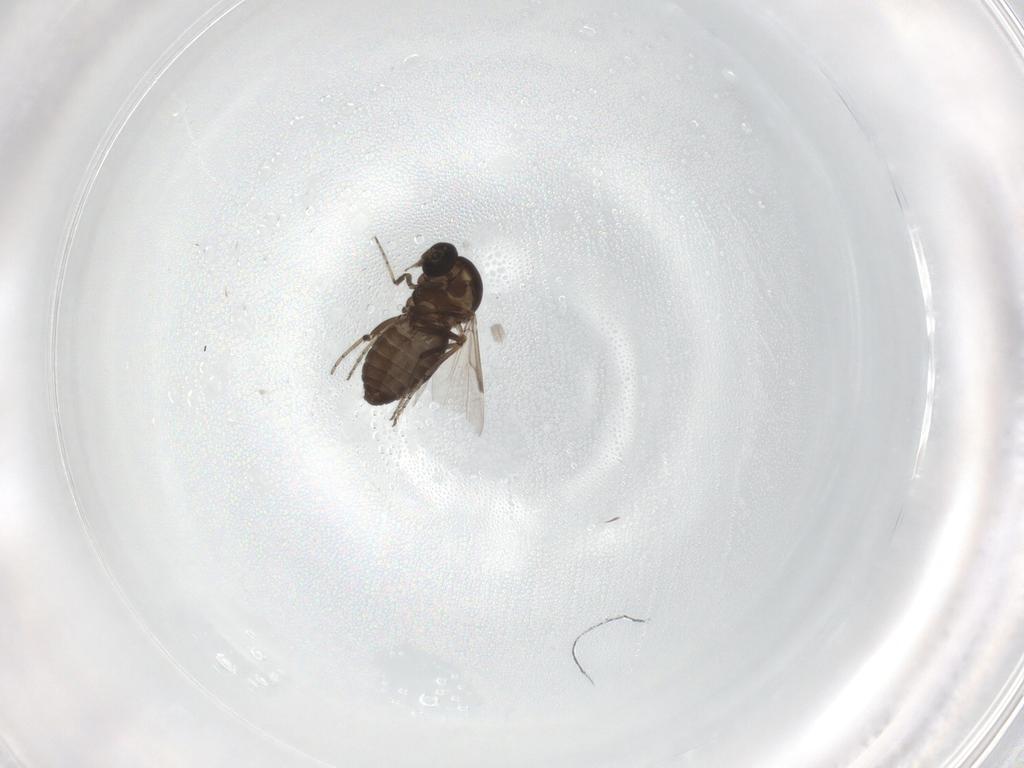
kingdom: Animalia
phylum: Arthropoda
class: Insecta
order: Diptera
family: Ceratopogonidae
